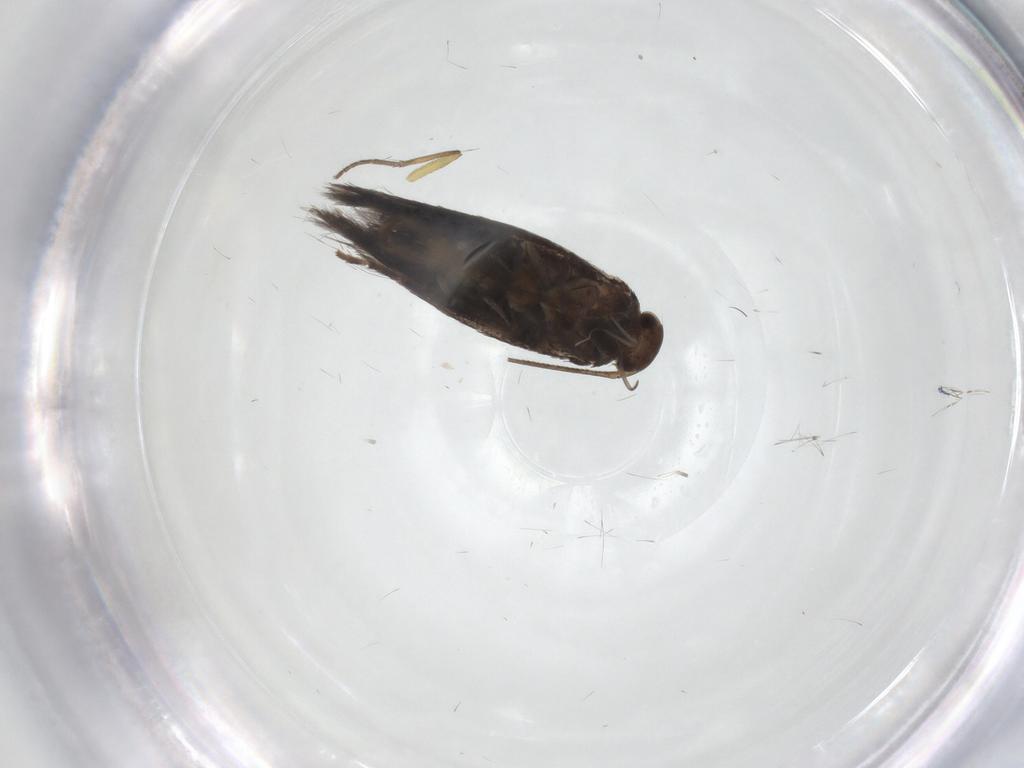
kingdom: Animalia
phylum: Arthropoda
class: Insecta
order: Lepidoptera
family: Elachistidae
